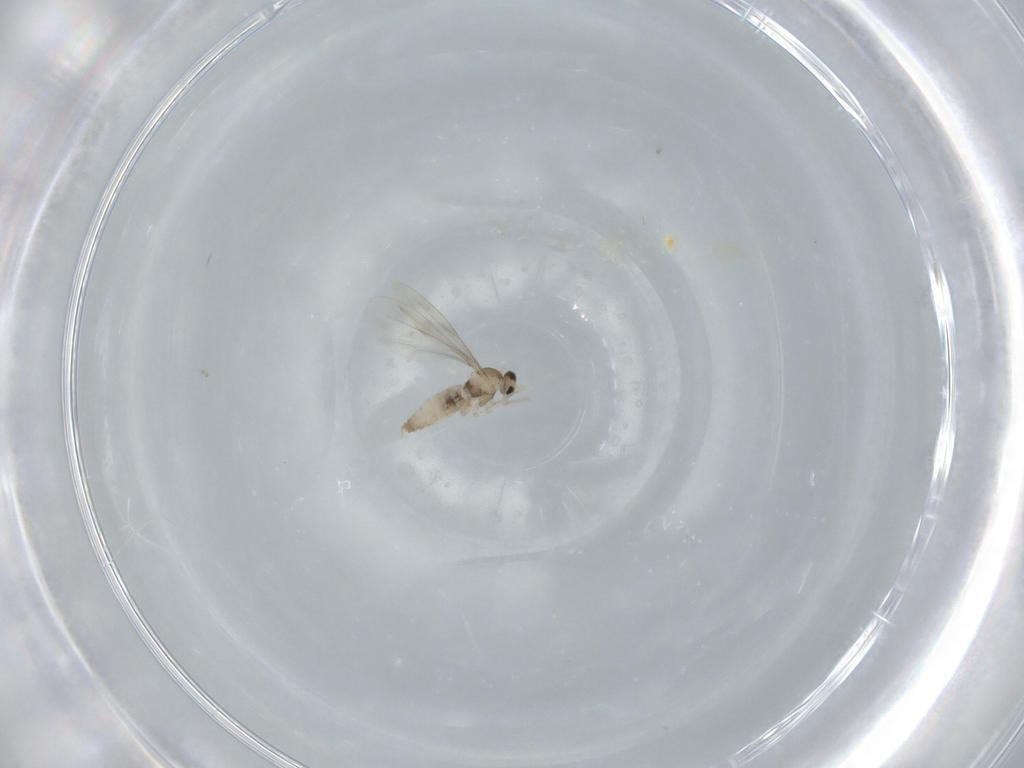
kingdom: Animalia
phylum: Arthropoda
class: Insecta
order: Diptera
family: Cecidomyiidae
